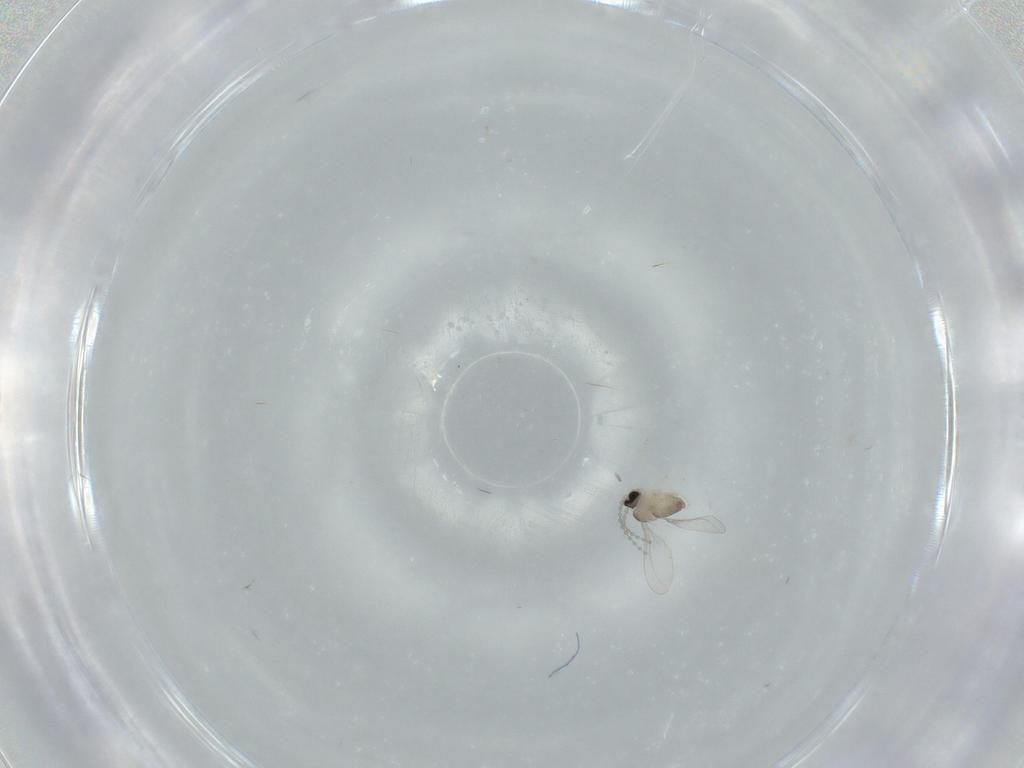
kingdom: Animalia
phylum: Arthropoda
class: Insecta
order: Diptera
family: Cecidomyiidae
